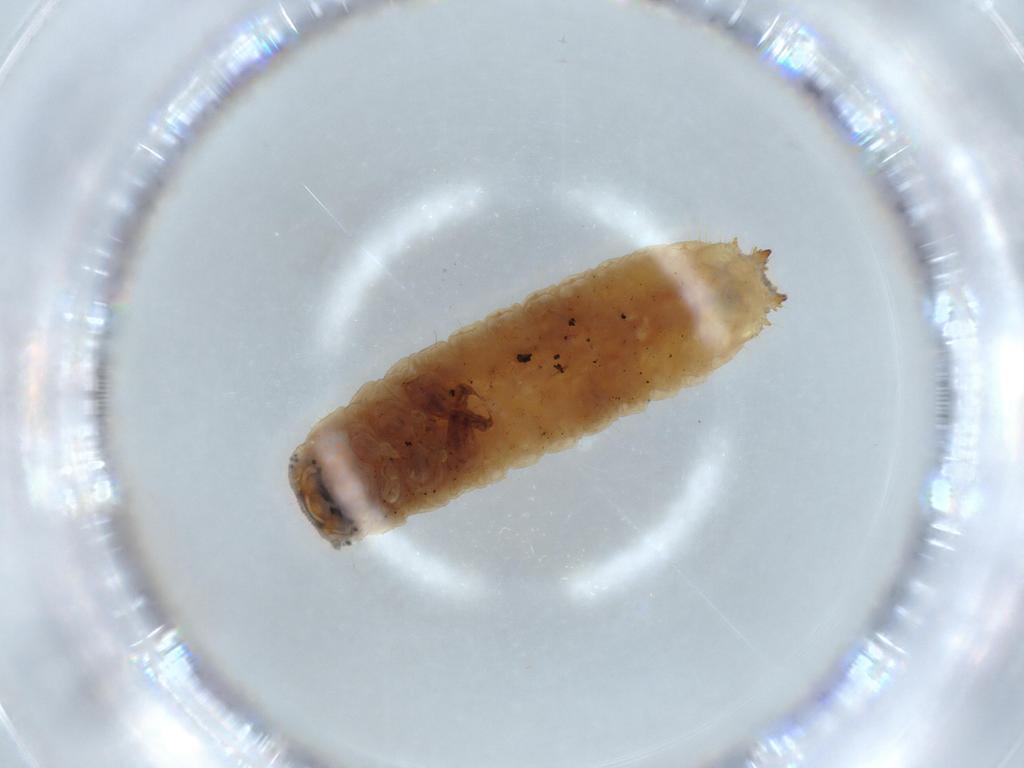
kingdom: Animalia
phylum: Arthropoda
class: Insecta
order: Coleoptera
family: Erotylidae
